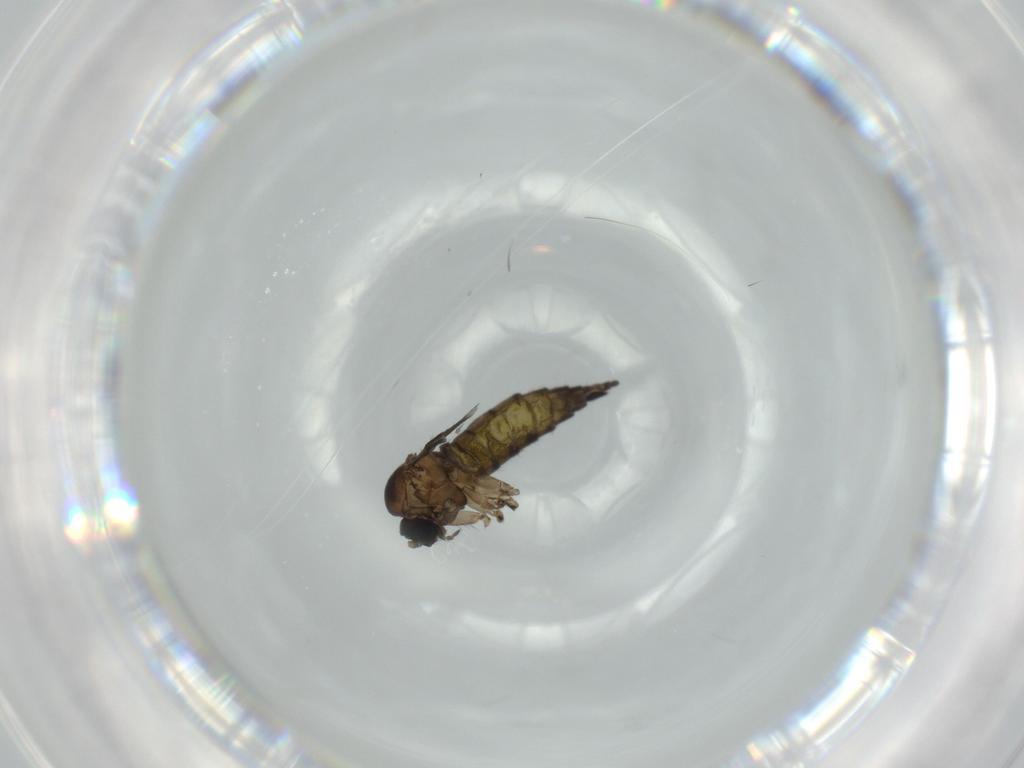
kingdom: Animalia
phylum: Arthropoda
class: Insecta
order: Diptera
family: Sciaridae
